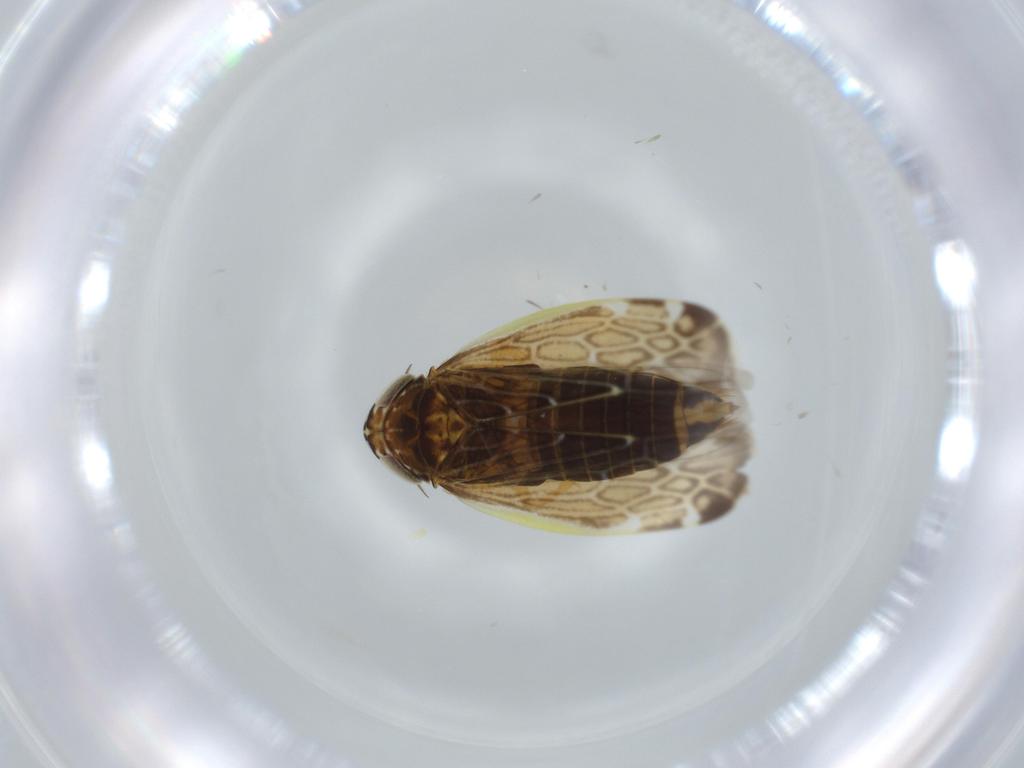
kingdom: Animalia
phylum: Arthropoda
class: Insecta
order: Hemiptera
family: Cicadellidae
